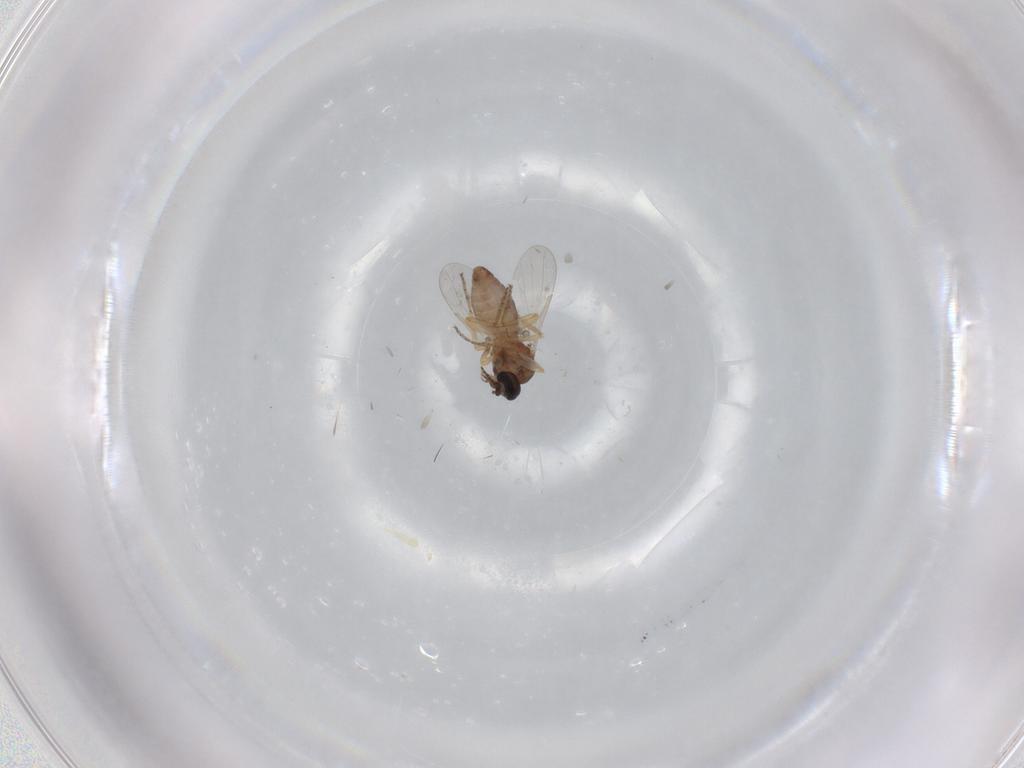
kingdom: Animalia
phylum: Arthropoda
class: Insecta
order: Diptera
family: Ceratopogonidae
